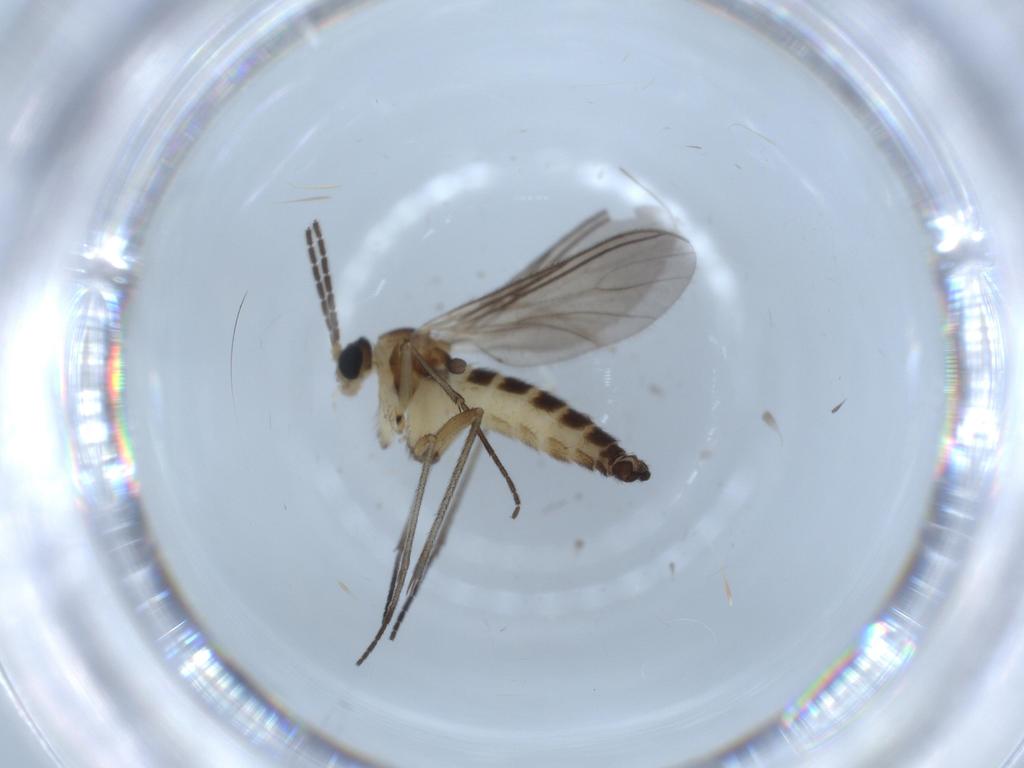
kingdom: Animalia
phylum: Arthropoda
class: Insecta
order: Diptera
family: Sciaridae
